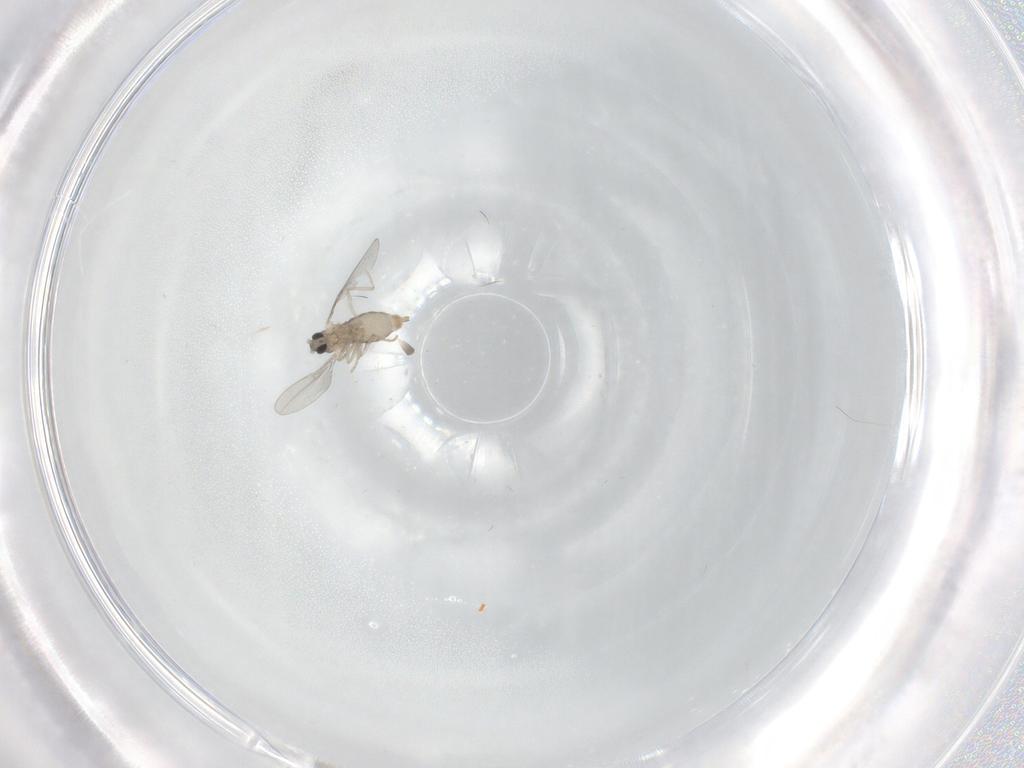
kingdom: Animalia
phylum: Arthropoda
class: Insecta
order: Diptera
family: Cecidomyiidae
